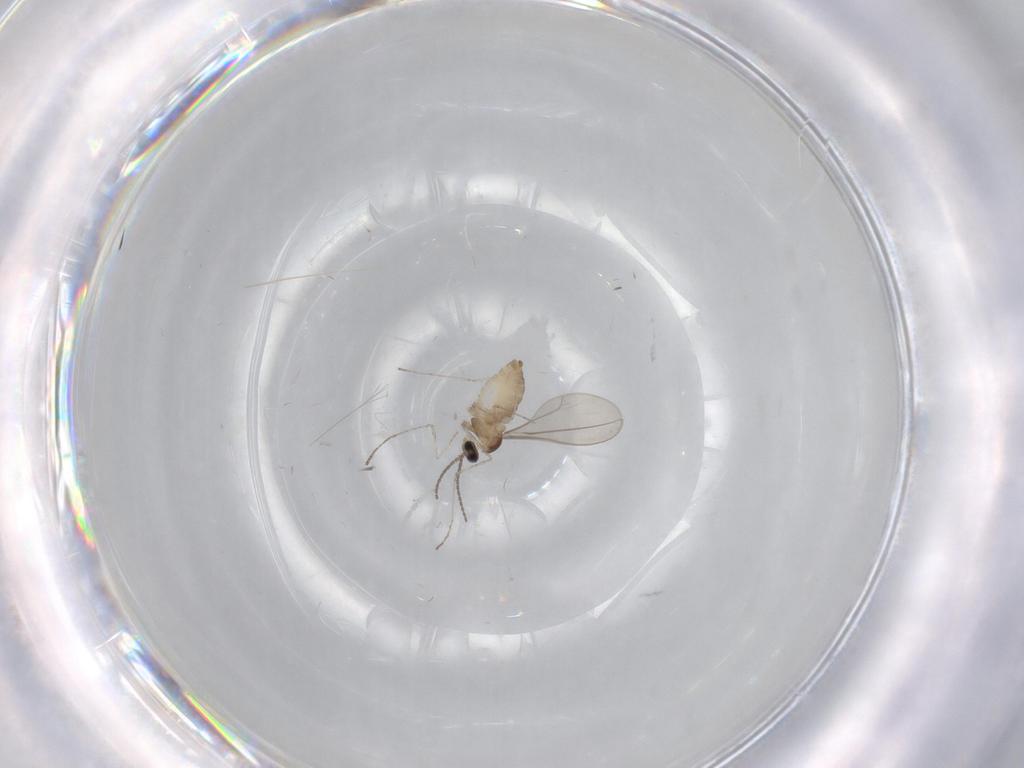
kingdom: Animalia
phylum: Arthropoda
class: Insecta
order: Diptera
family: Cecidomyiidae
